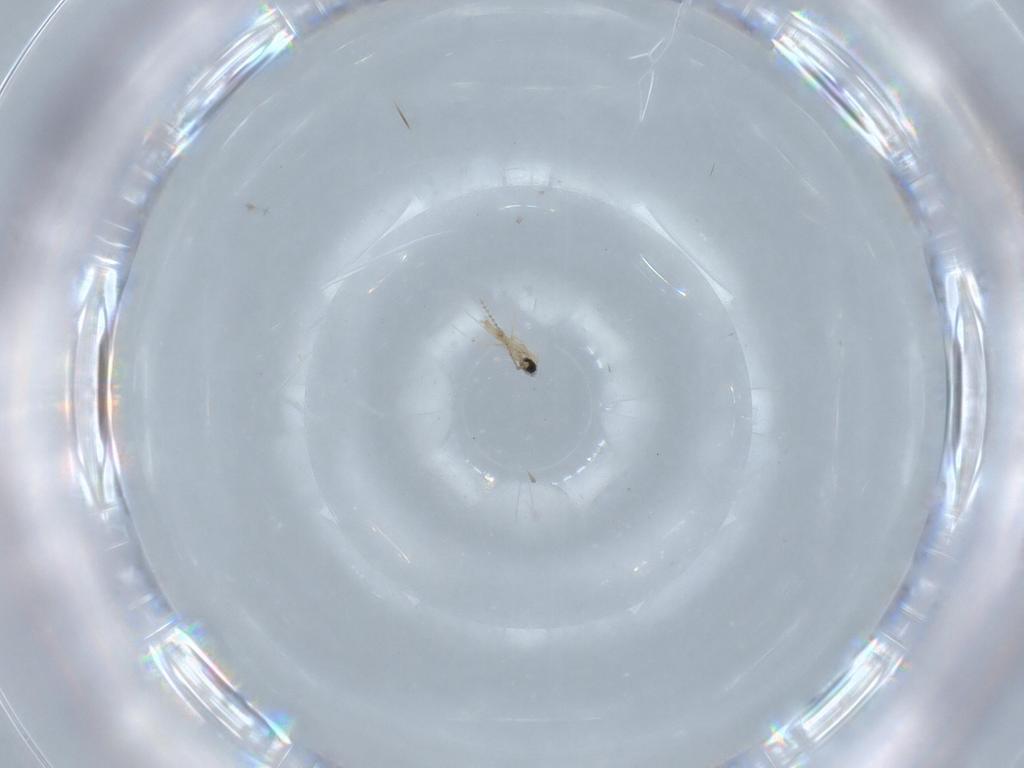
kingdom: Animalia
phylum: Arthropoda
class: Insecta
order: Diptera
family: Cecidomyiidae
